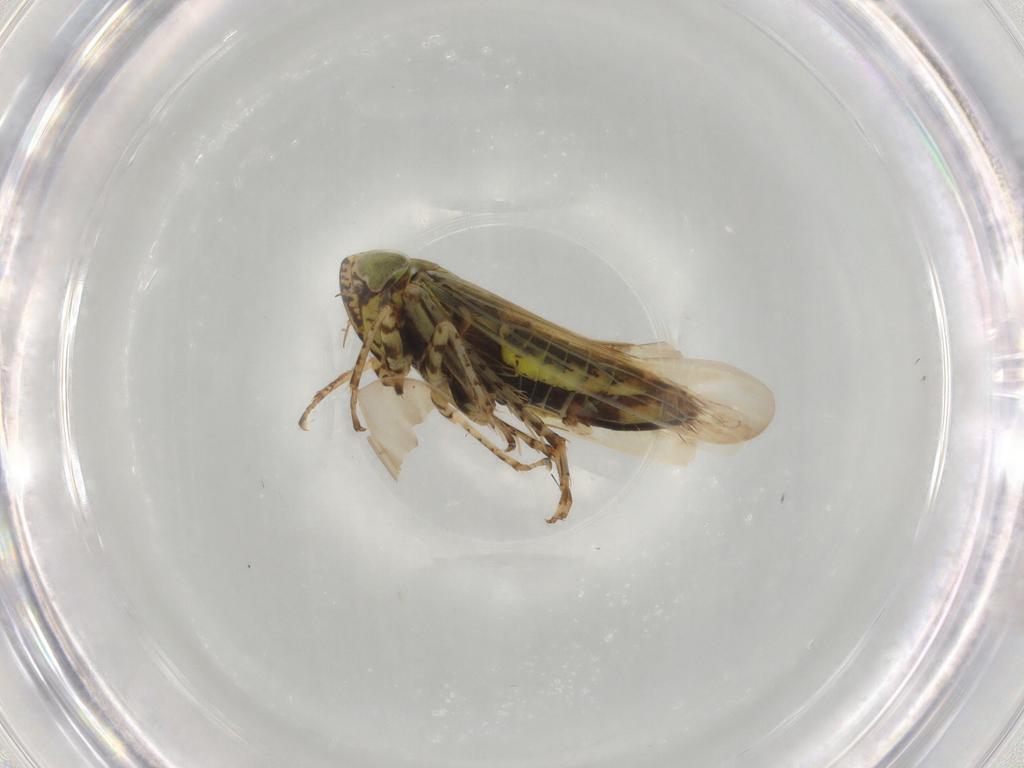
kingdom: Animalia
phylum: Arthropoda
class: Insecta
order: Hemiptera
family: Cicadellidae
